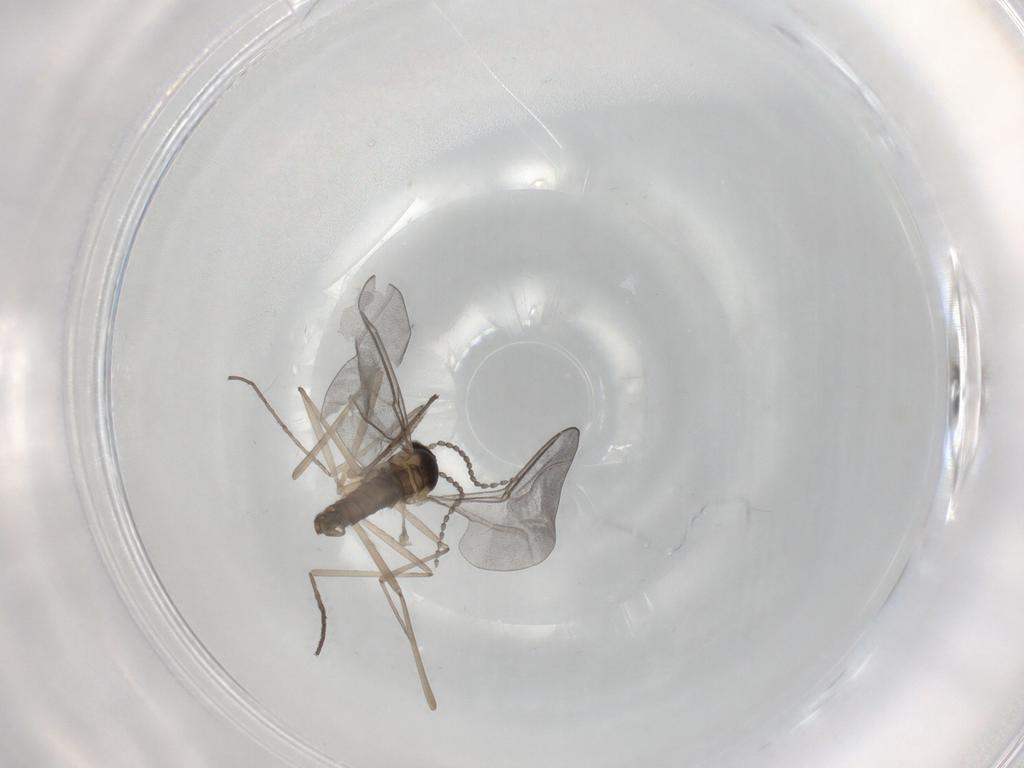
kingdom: Animalia
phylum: Arthropoda
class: Insecta
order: Diptera
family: Cecidomyiidae
